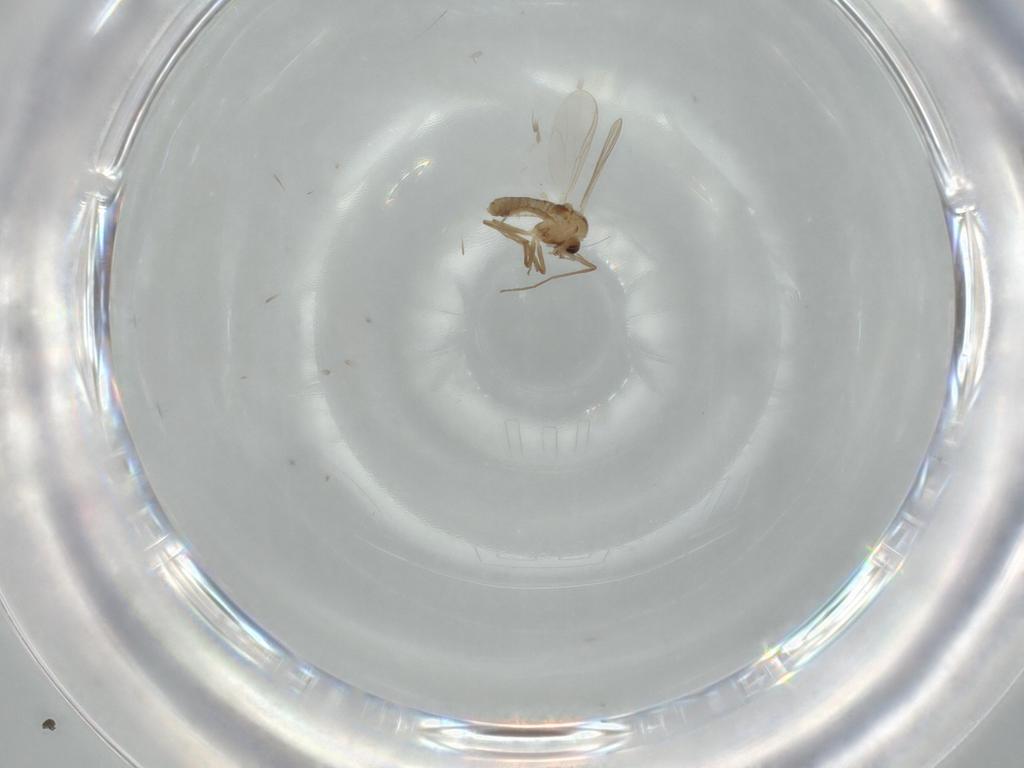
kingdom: Animalia
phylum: Arthropoda
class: Insecta
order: Diptera
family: Chironomidae
